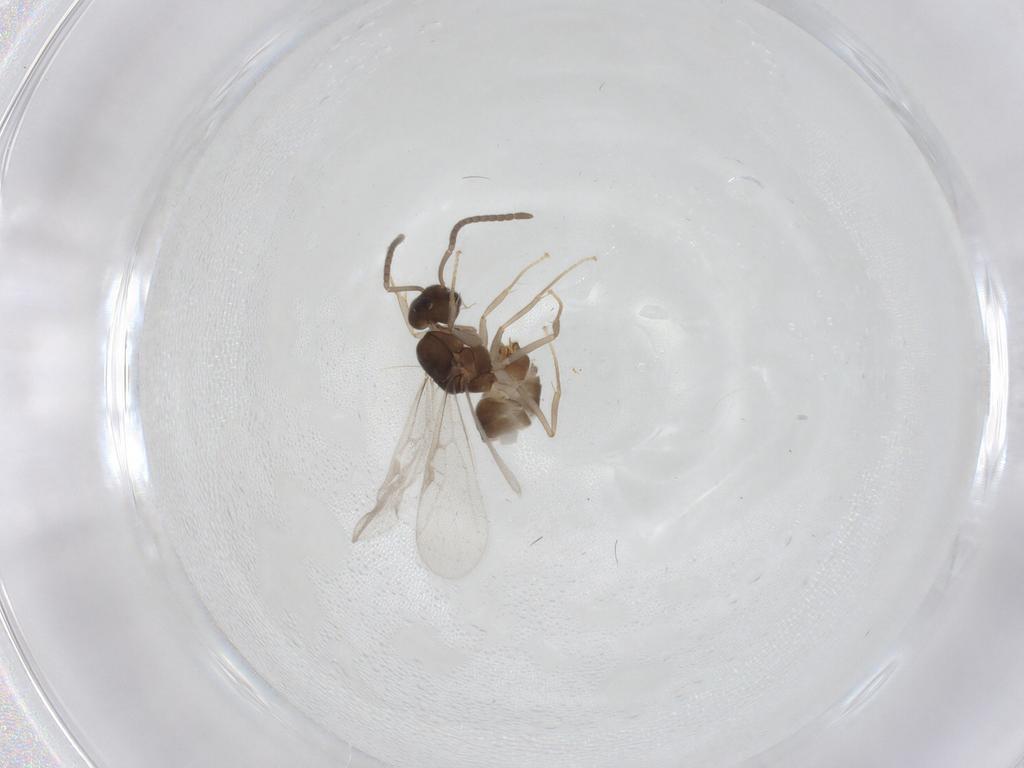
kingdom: Animalia
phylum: Arthropoda
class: Insecta
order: Hymenoptera
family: Formicidae
